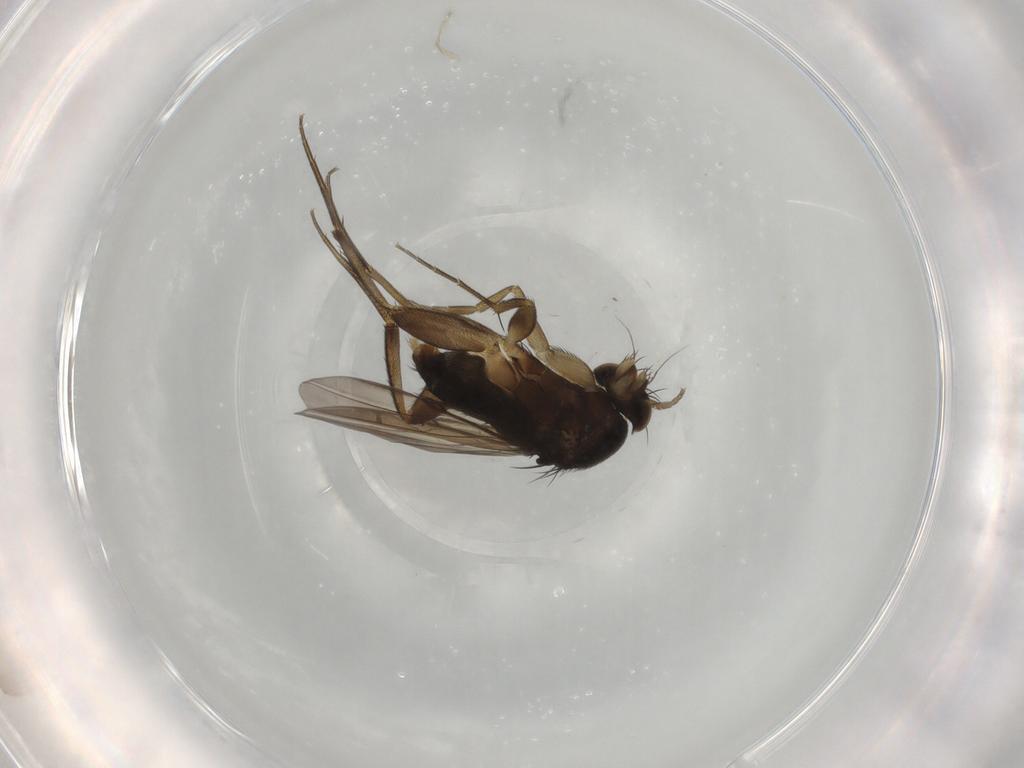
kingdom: Animalia
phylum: Arthropoda
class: Insecta
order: Diptera
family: Phoridae
